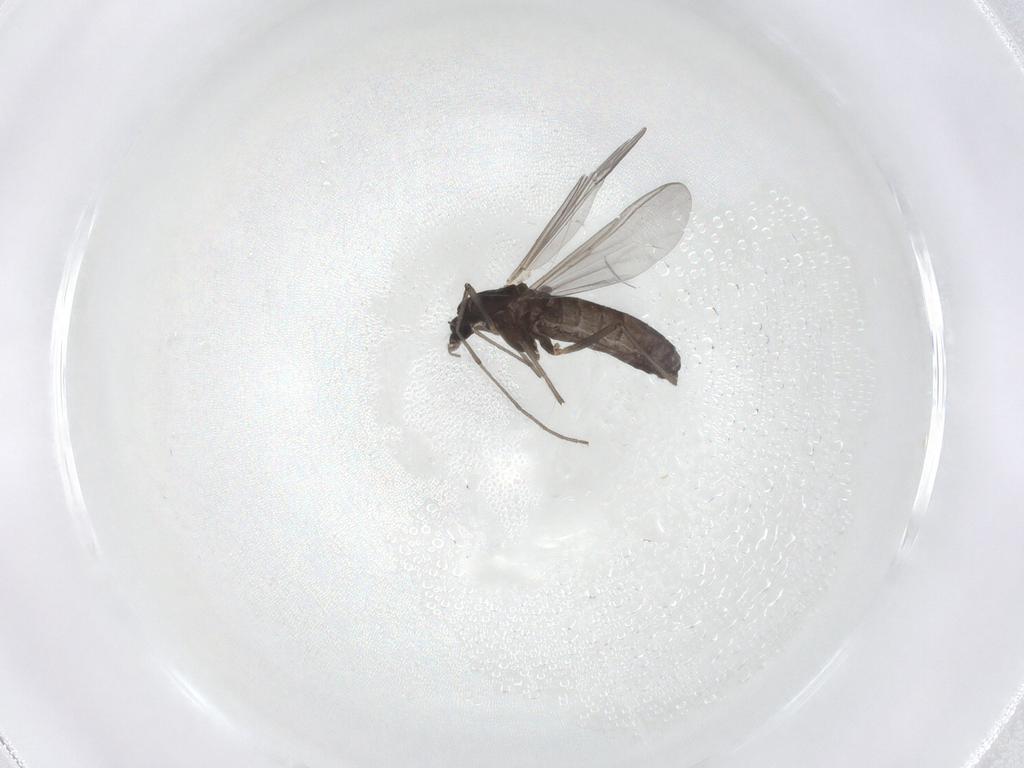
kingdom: Animalia
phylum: Arthropoda
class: Insecta
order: Diptera
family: Chironomidae
